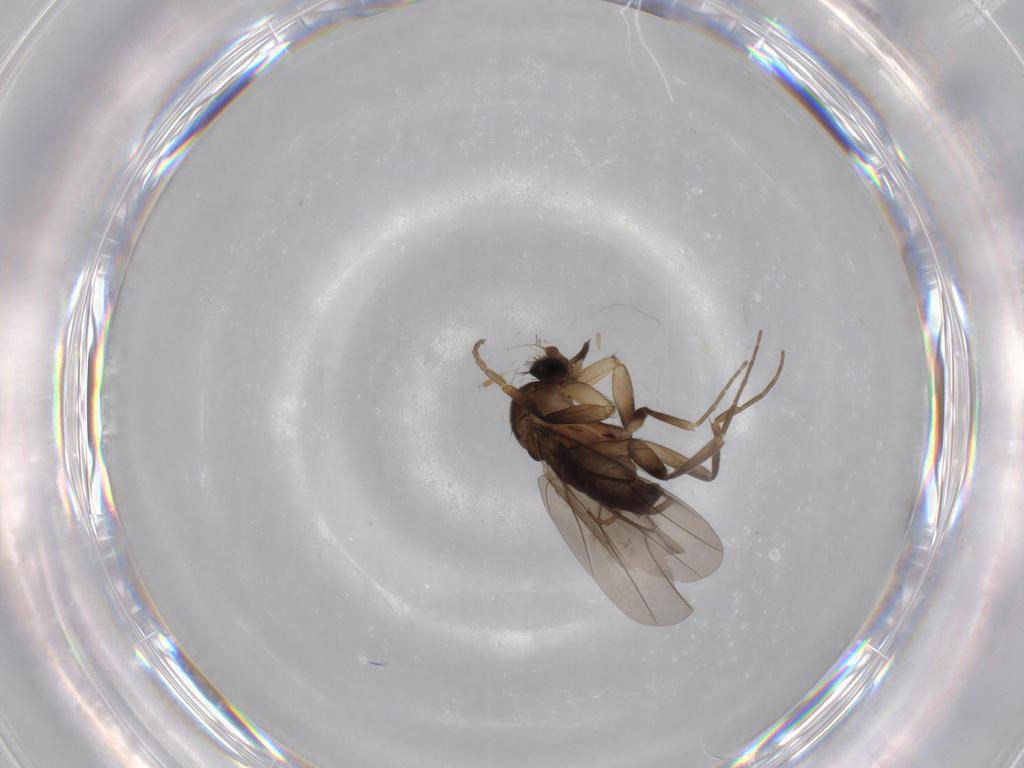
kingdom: Animalia
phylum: Arthropoda
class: Insecta
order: Diptera
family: Phoridae
